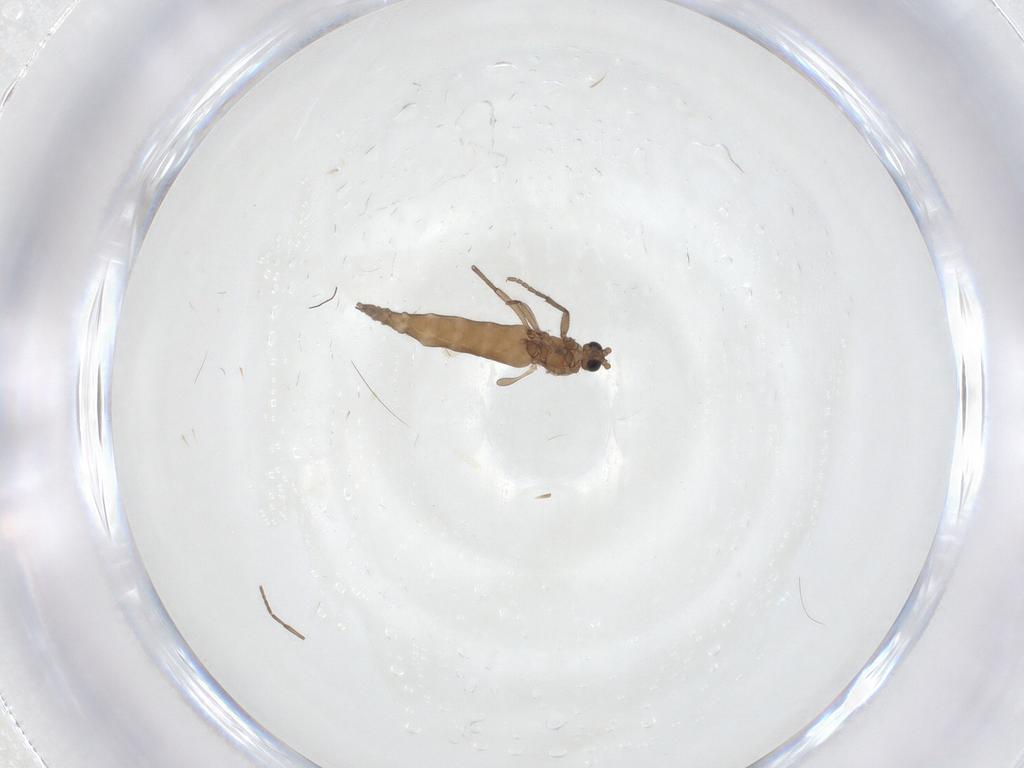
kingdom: Animalia
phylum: Arthropoda
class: Insecta
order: Diptera
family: Sciaridae
